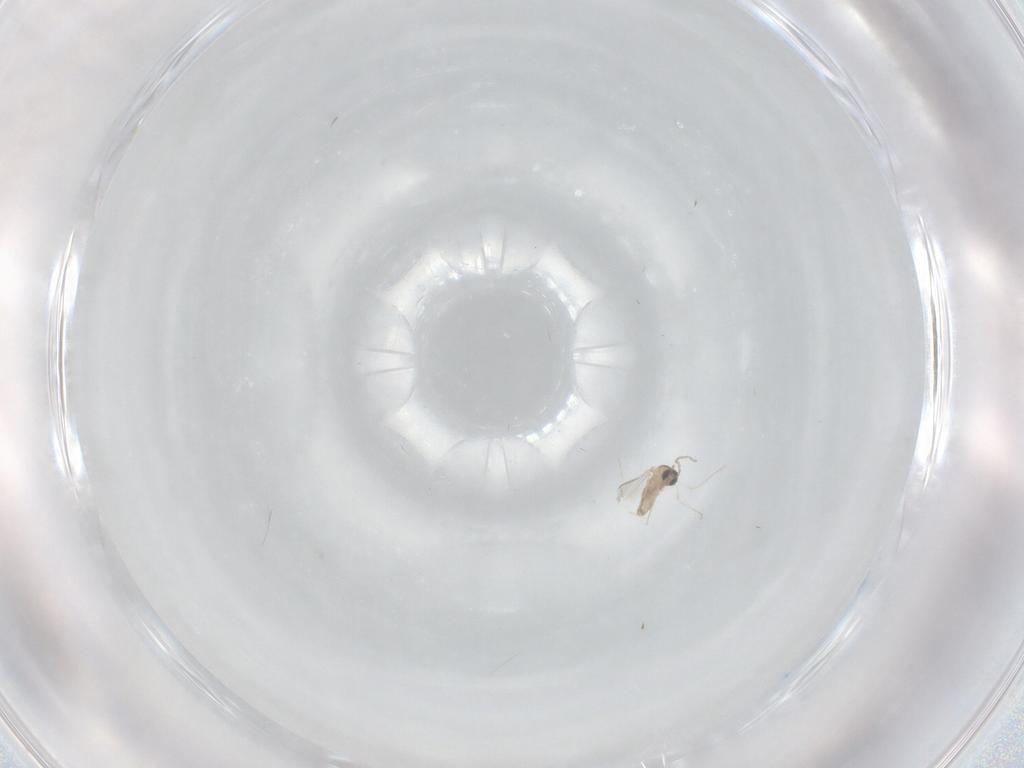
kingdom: Animalia
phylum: Arthropoda
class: Insecta
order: Diptera
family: Cecidomyiidae
